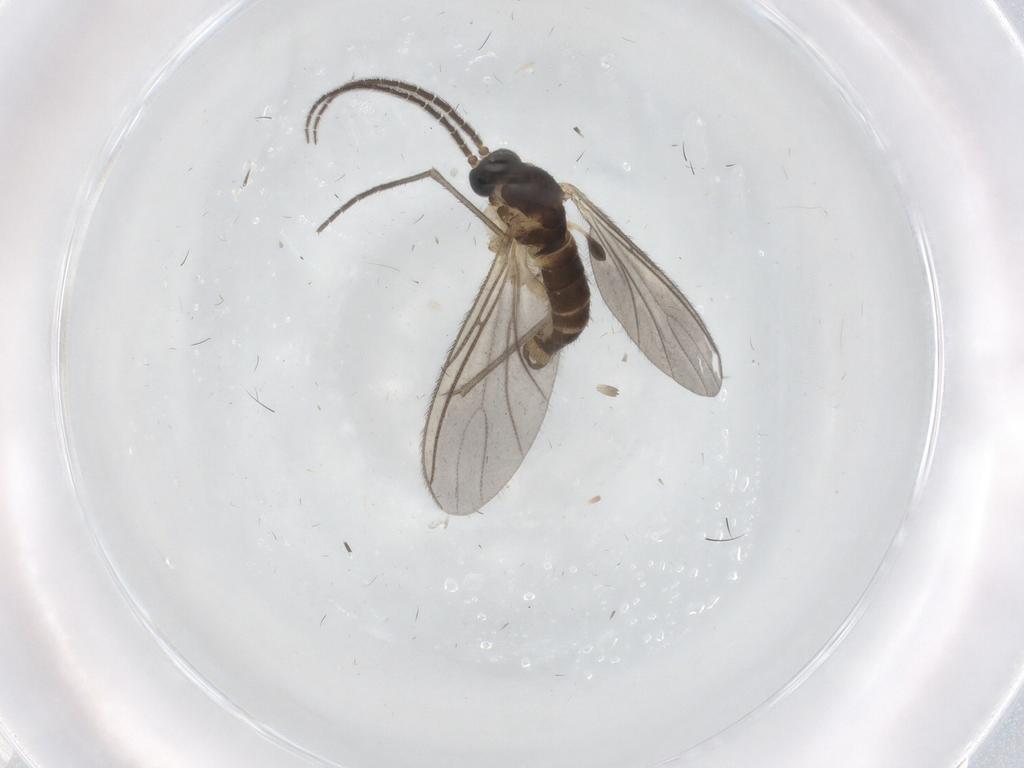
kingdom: Animalia
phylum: Arthropoda
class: Insecta
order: Diptera
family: Sciaridae
